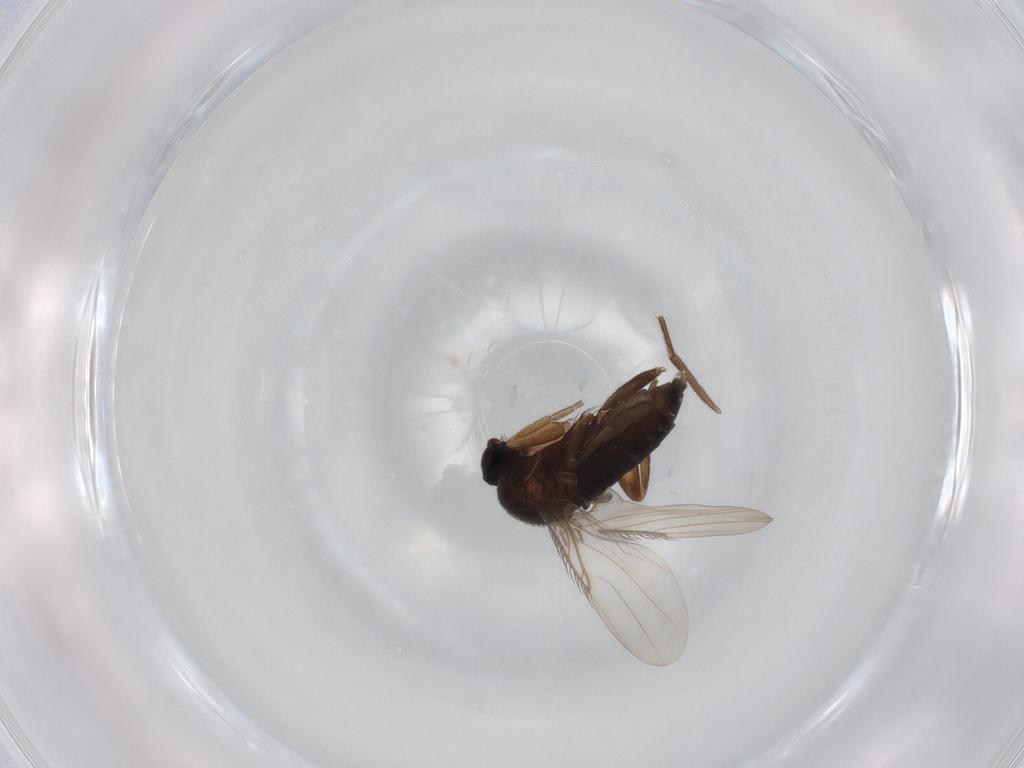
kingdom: Animalia
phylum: Arthropoda
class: Insecta
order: Diptera
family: Phoridae
